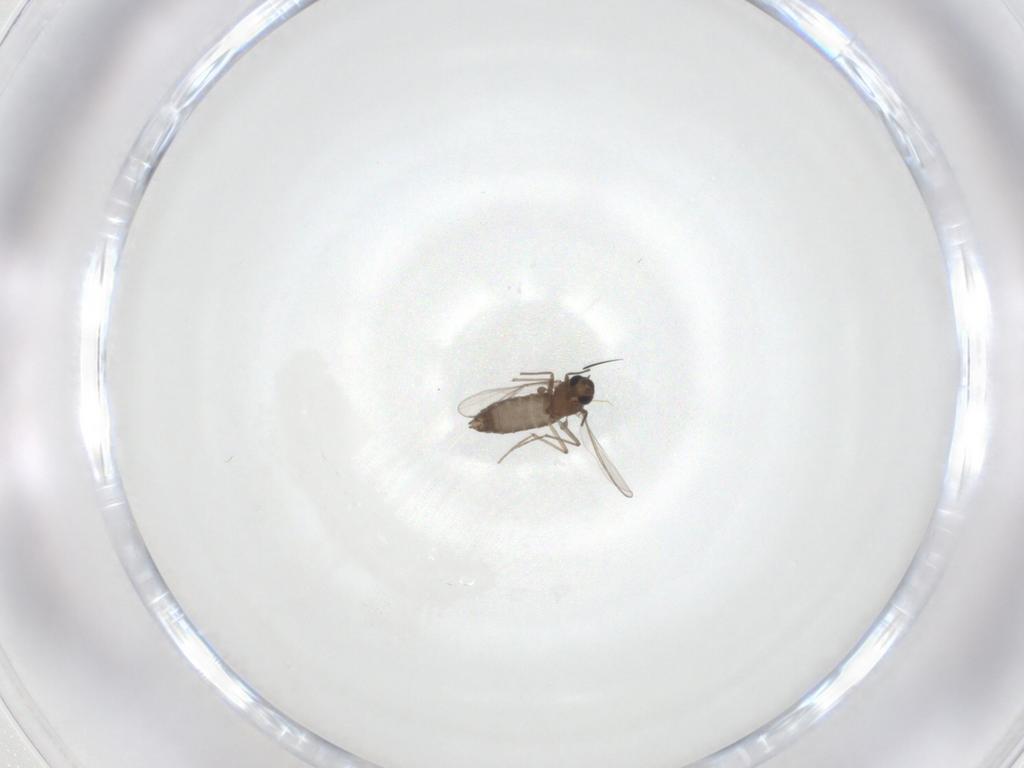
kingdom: Animalia
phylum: Arthropoda
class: Insecta
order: Diptera
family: Chironomidae
